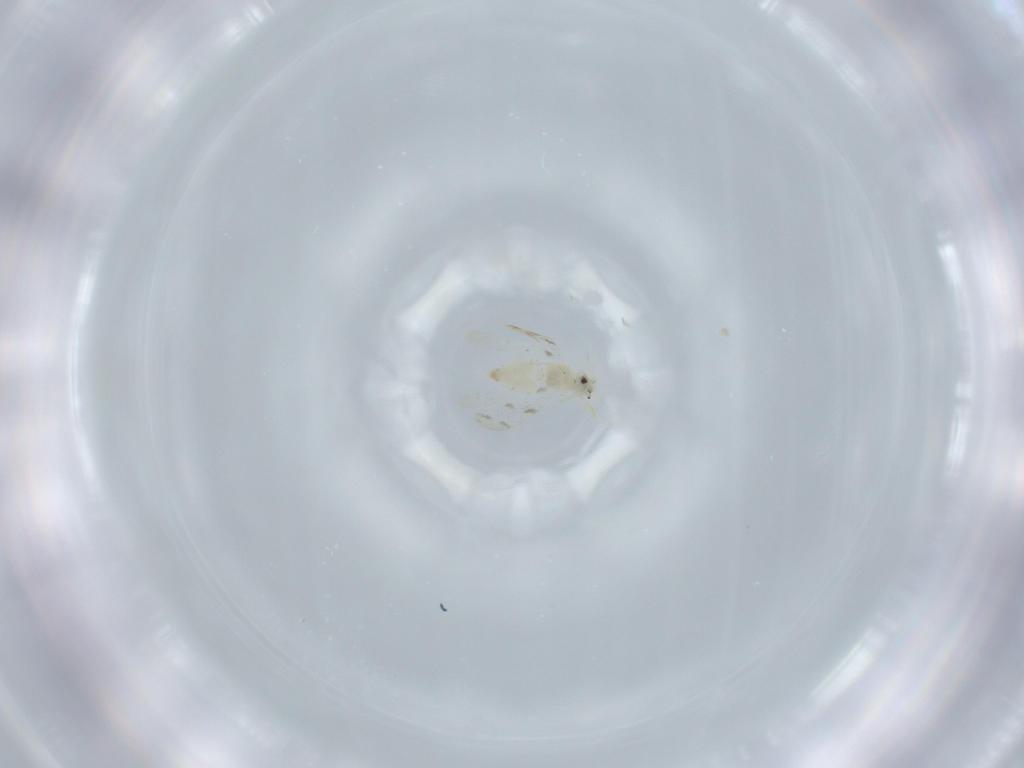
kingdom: Animalia
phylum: Arthropoda
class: Insecta
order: Hemiptera
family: Aleyrodidae
